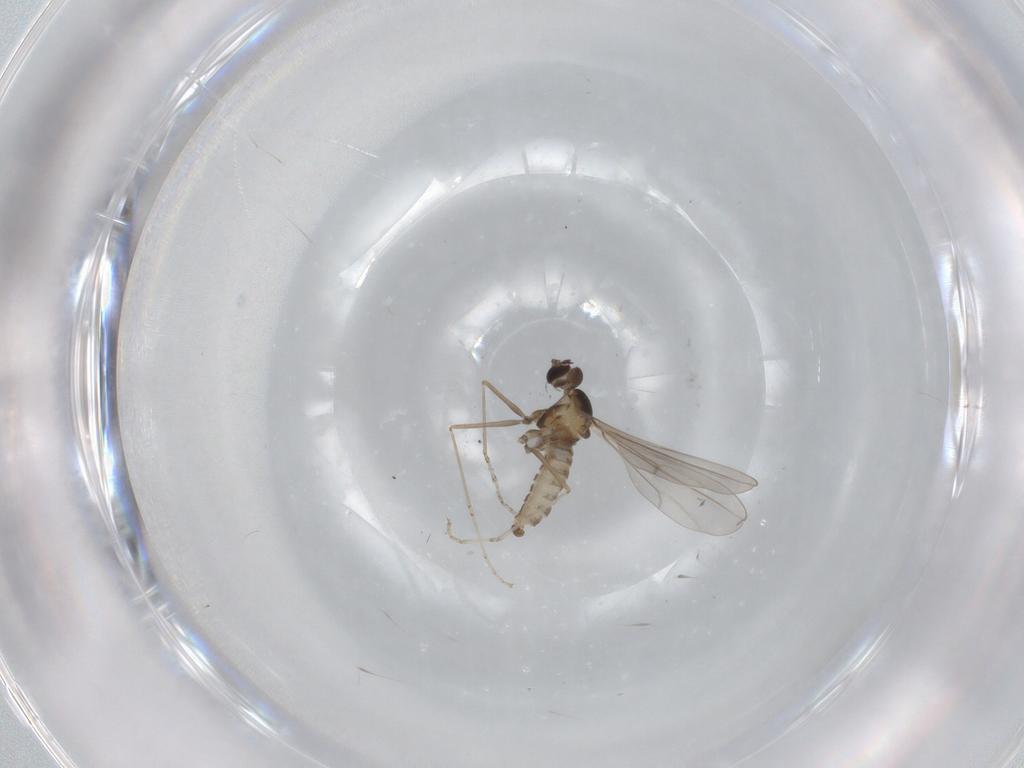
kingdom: Animalia
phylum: Arthropoda
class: Insecta
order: Diptera
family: Cecidomyiidae
